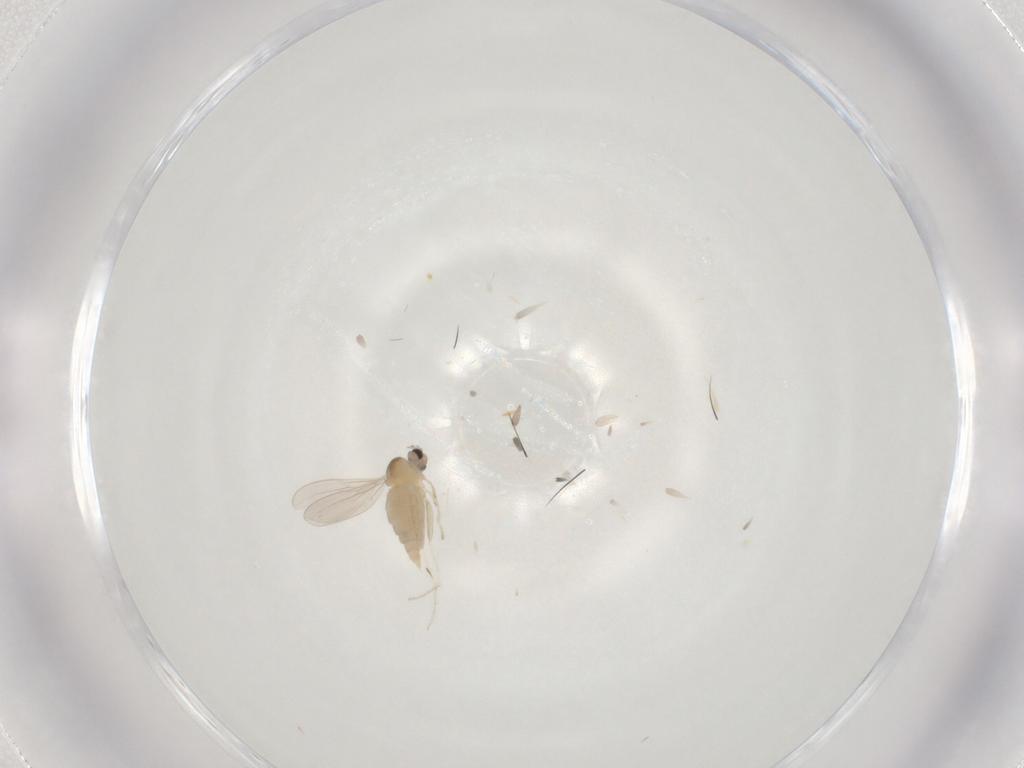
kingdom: Animalia
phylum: Arthropoda
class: Insecta
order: Diptera
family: Cecidomyiidae
